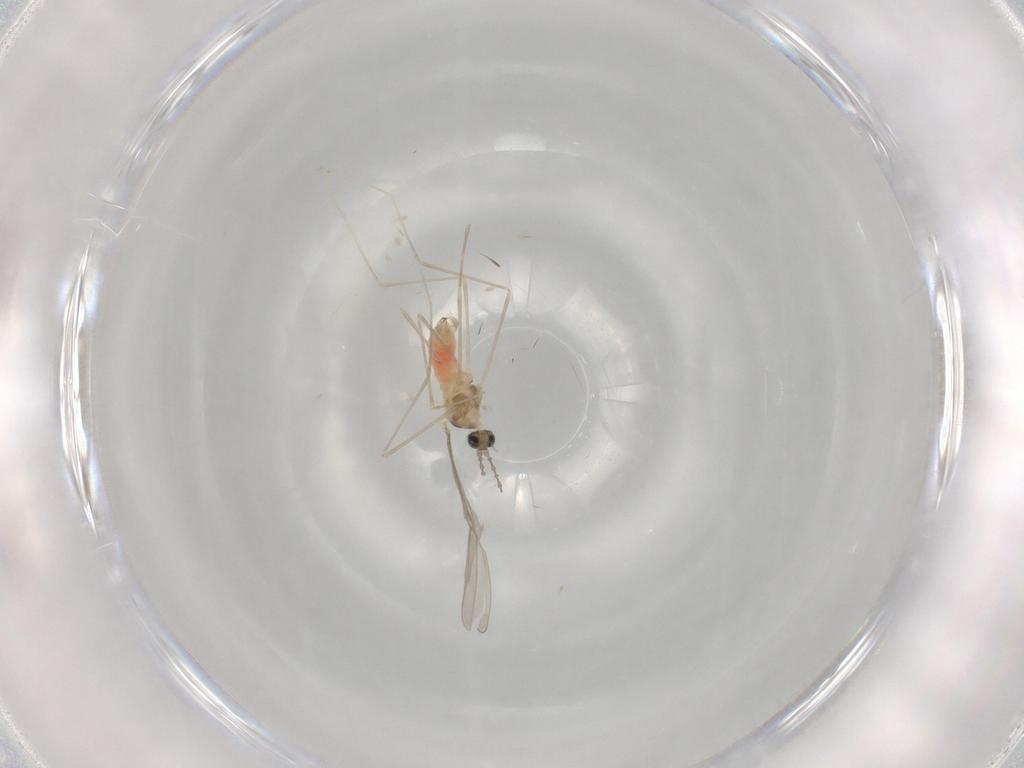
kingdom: Animalia
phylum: Arthropoda
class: Insecta
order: Diptera
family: Cecidomyiidae
